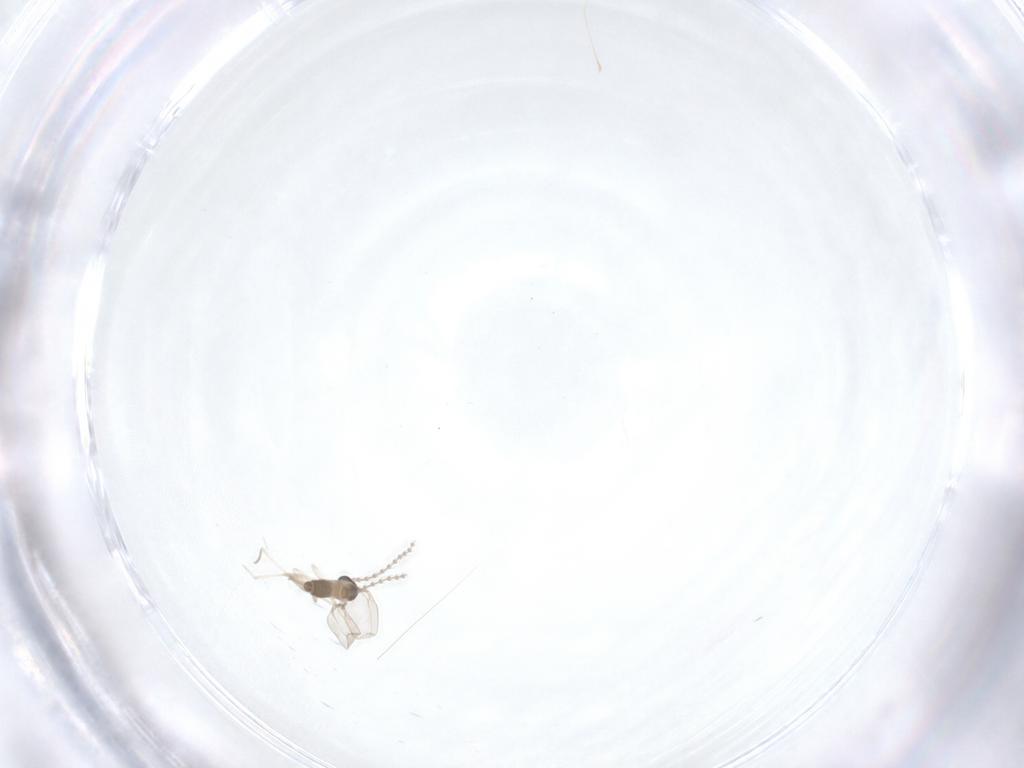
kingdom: Animalia
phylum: Arthropoda
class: Insecta
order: Diptera
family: Cecidomyiidae
